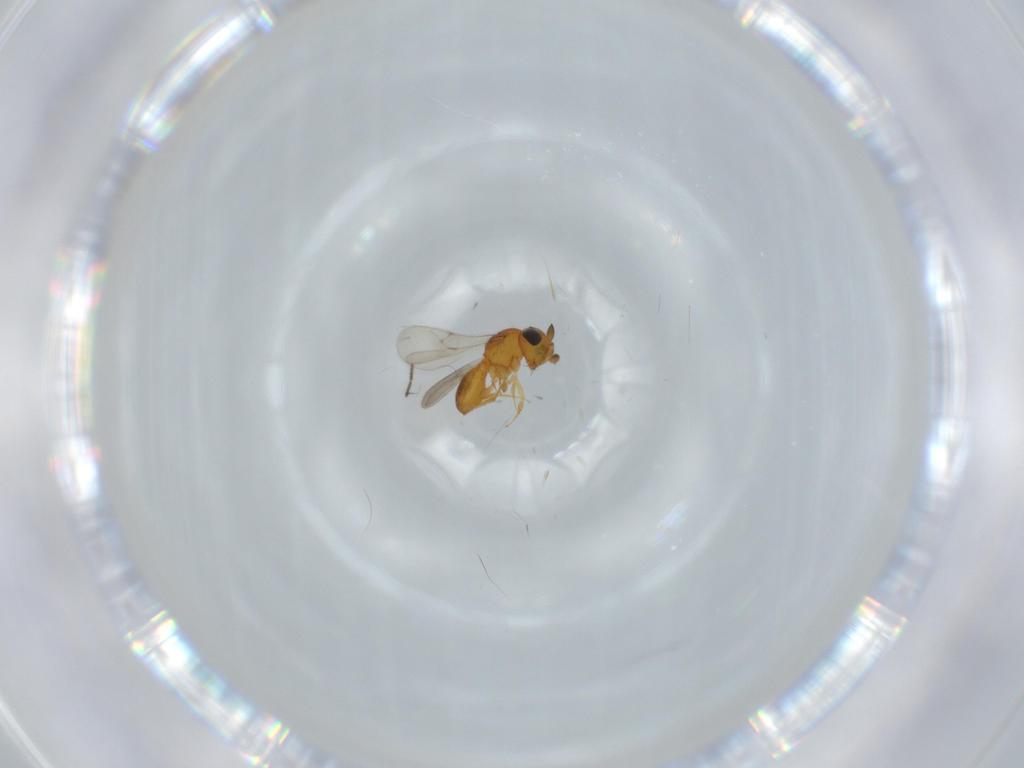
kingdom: Animalia
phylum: Arthropoda
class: Insecta
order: Hymenoptera
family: Scelionidae
